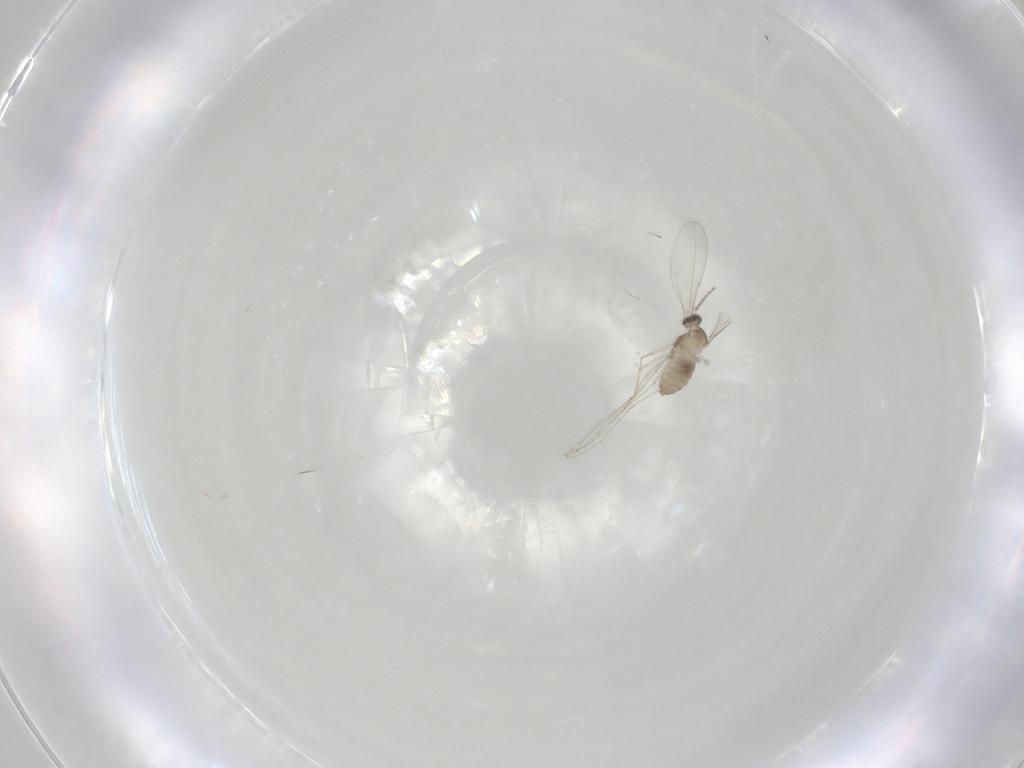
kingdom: Animalia
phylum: Arthropoda
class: Insecta
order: Diptera
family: Cecidomyiidae
